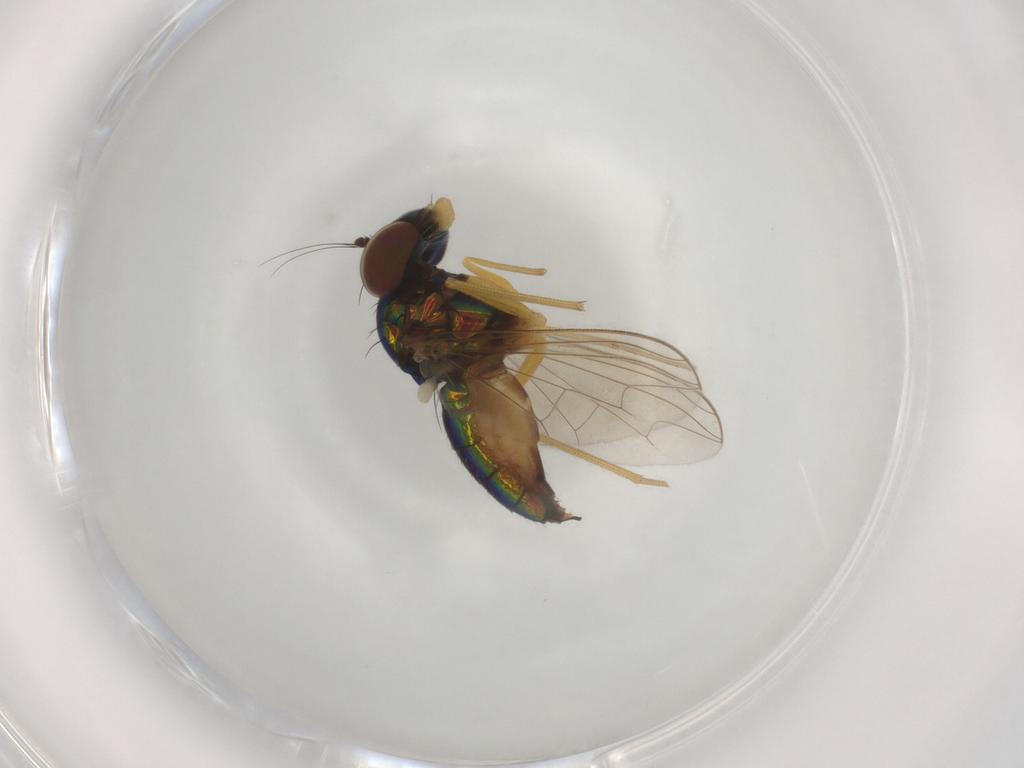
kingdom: Animalia
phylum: Arthropoda
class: Insecta
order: Diptera
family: Dolichopodidae
